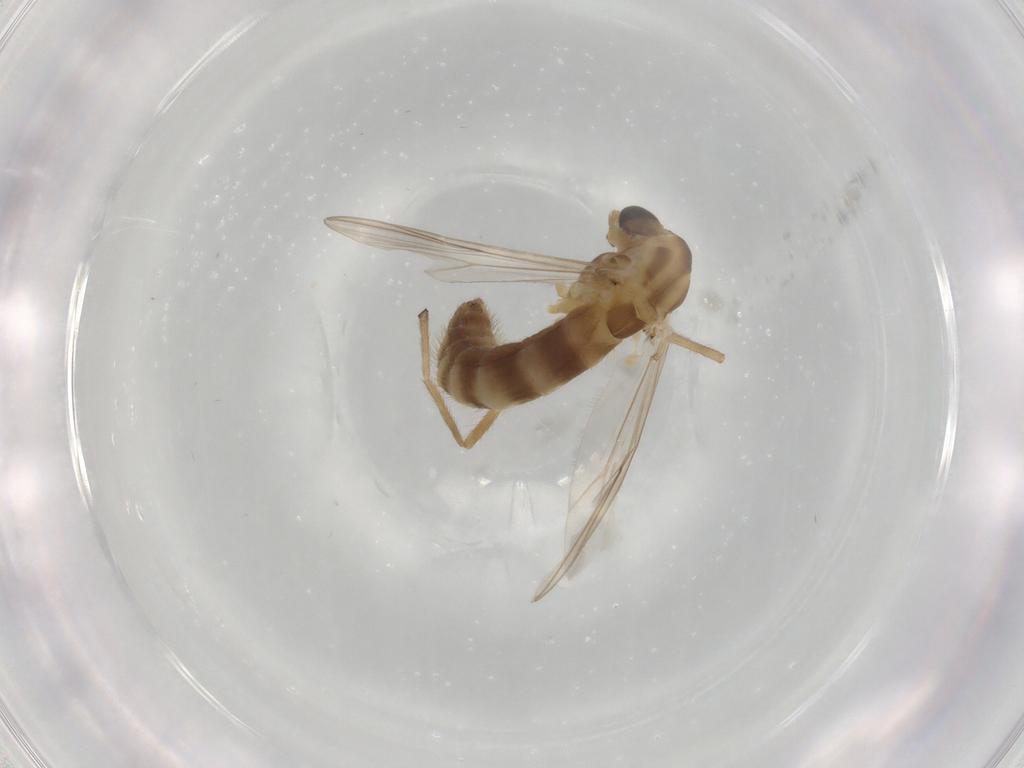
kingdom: Animalia
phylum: Arthropoda
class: Insecta
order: Diptera
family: Chironomidae
